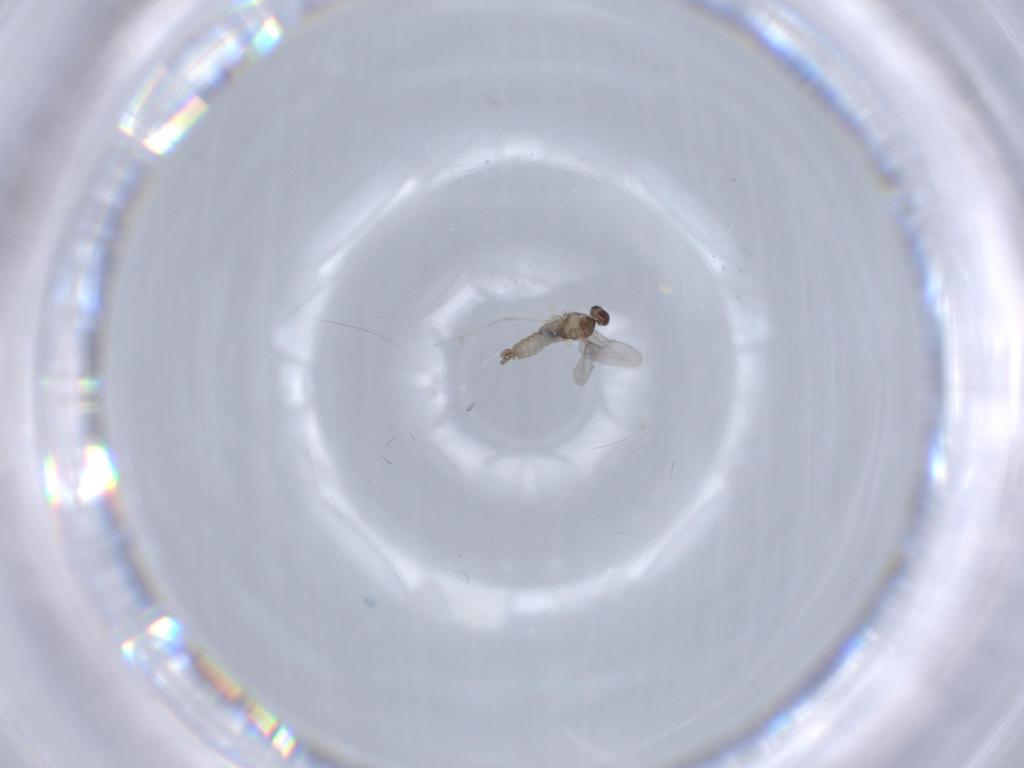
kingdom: Animalia
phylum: Arthropoda
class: Insecta
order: Diptera
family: Chironomidae
